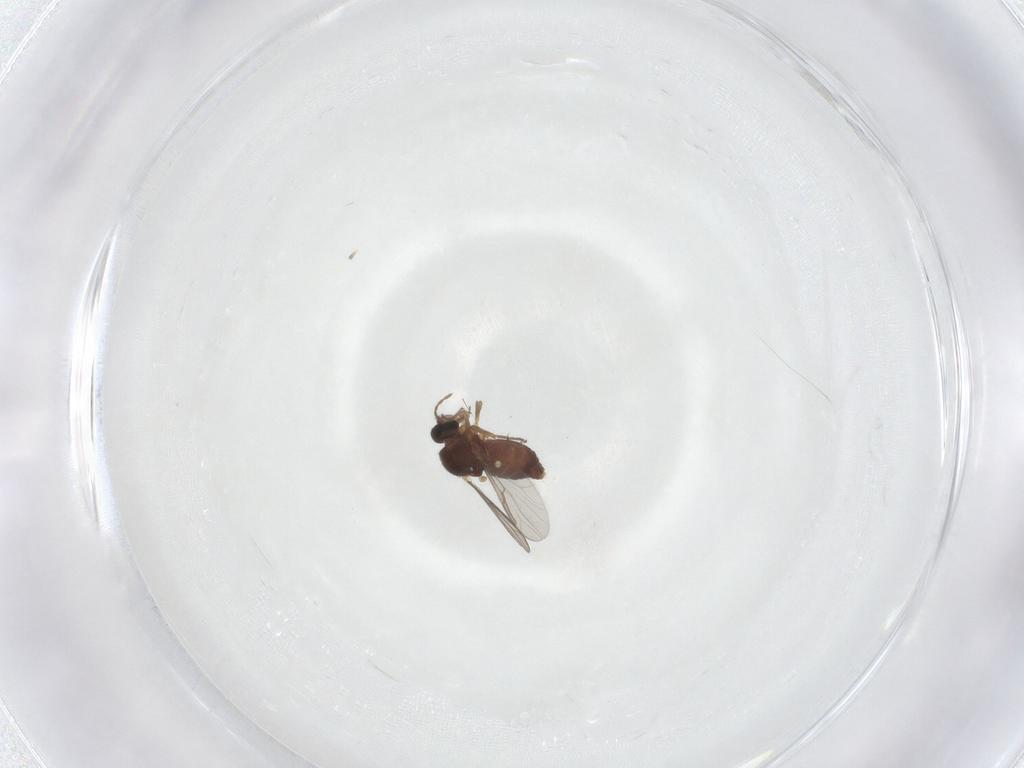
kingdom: Animalia
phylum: Arthropoda
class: Insecta
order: Diptera
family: Ceratopogonidae
